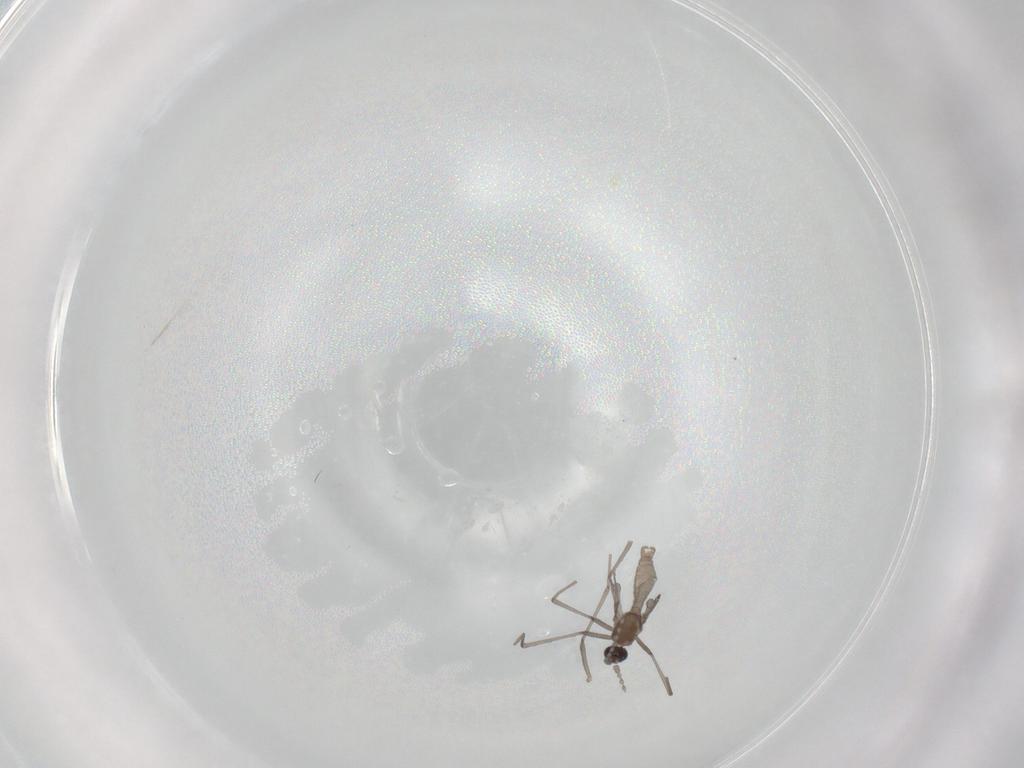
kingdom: Animalia
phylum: Arthropoda
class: Insecta
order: Diptera
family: Cecidomyiidae
